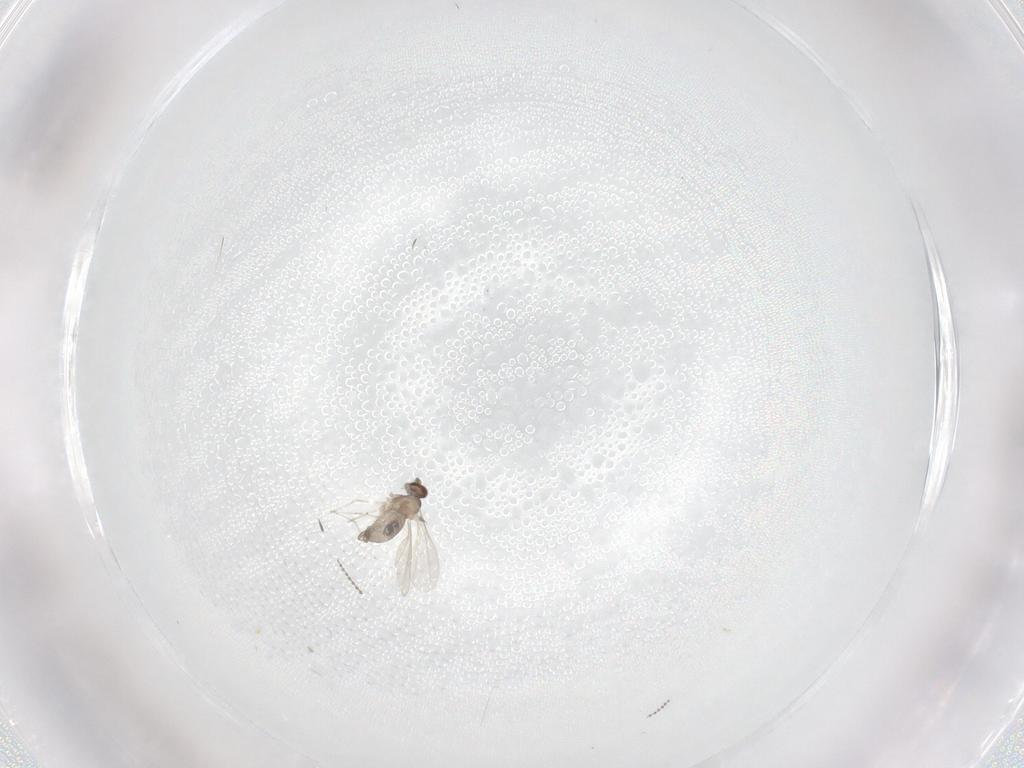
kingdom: Animalia
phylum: Arthropoda
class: Insecta
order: Diptera
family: Cecidomyiidae
